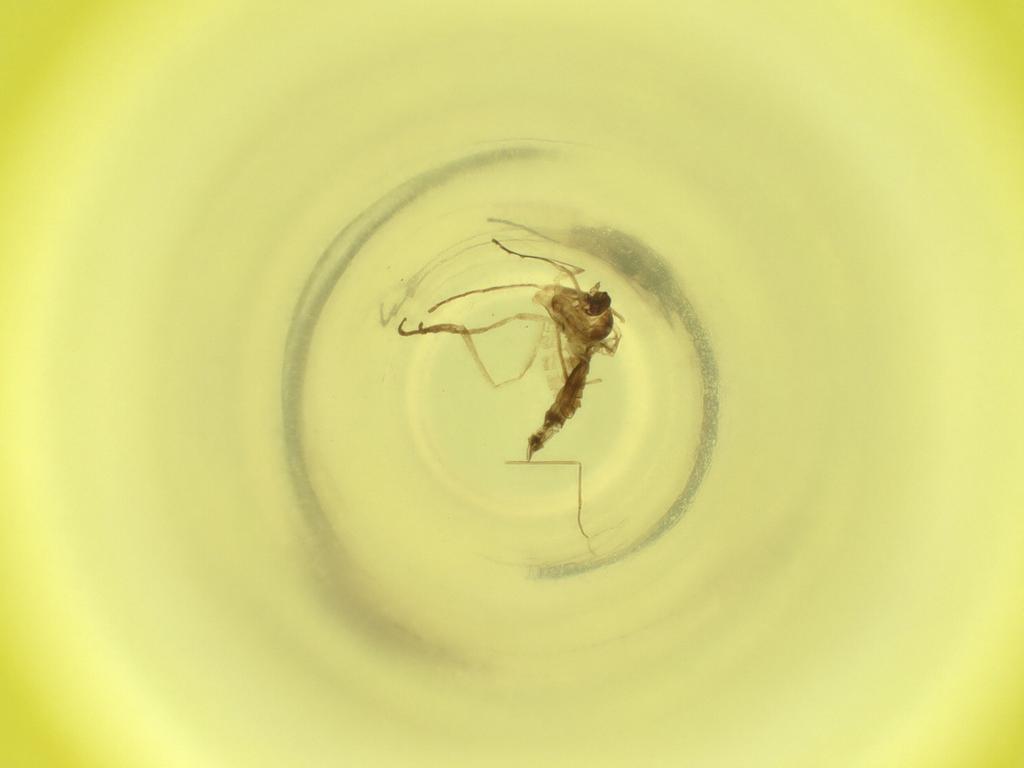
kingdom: Animalia
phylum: Arthropoda
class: Insecta
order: Diptera
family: Cecidomyiidae
